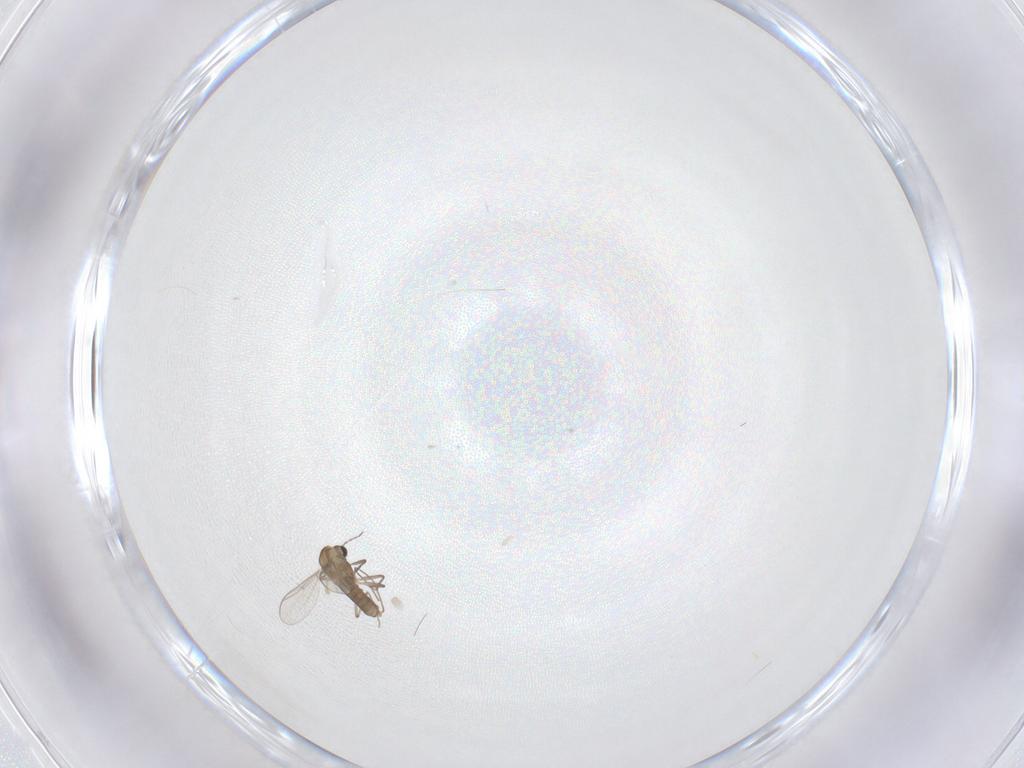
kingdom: Animalia
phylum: Arthropoda
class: Insecta
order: Diptera
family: Chironomidae
